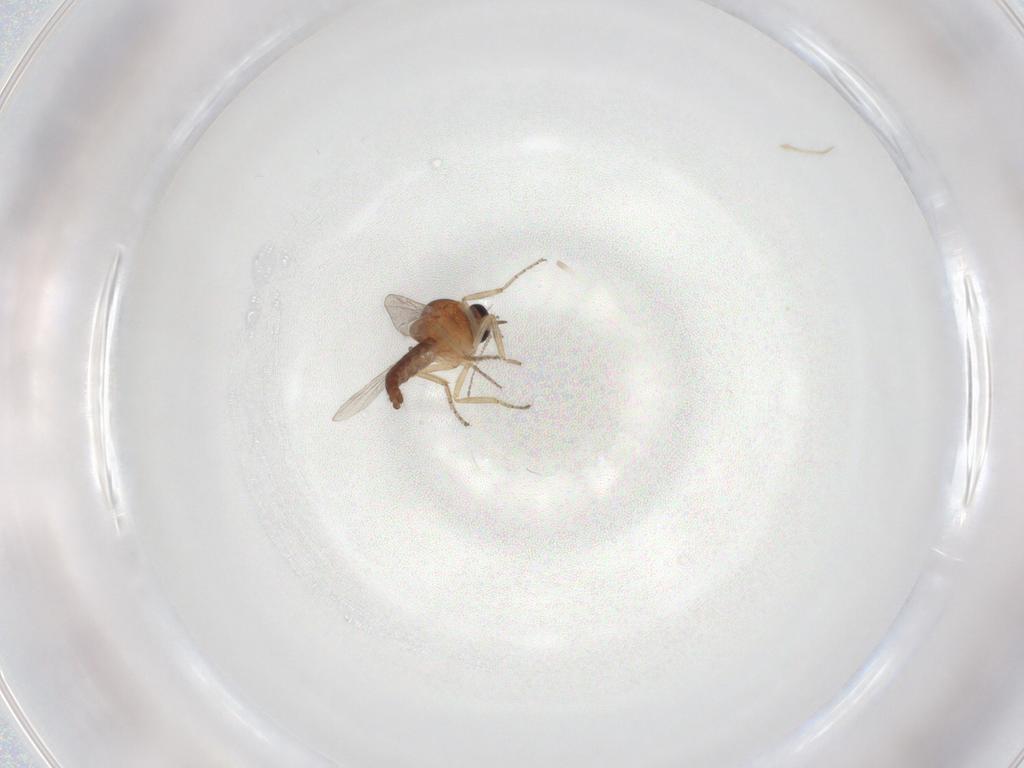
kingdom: Animalia
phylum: Arthropoda
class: Insecta
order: Diptera
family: Ceratopogonidae
